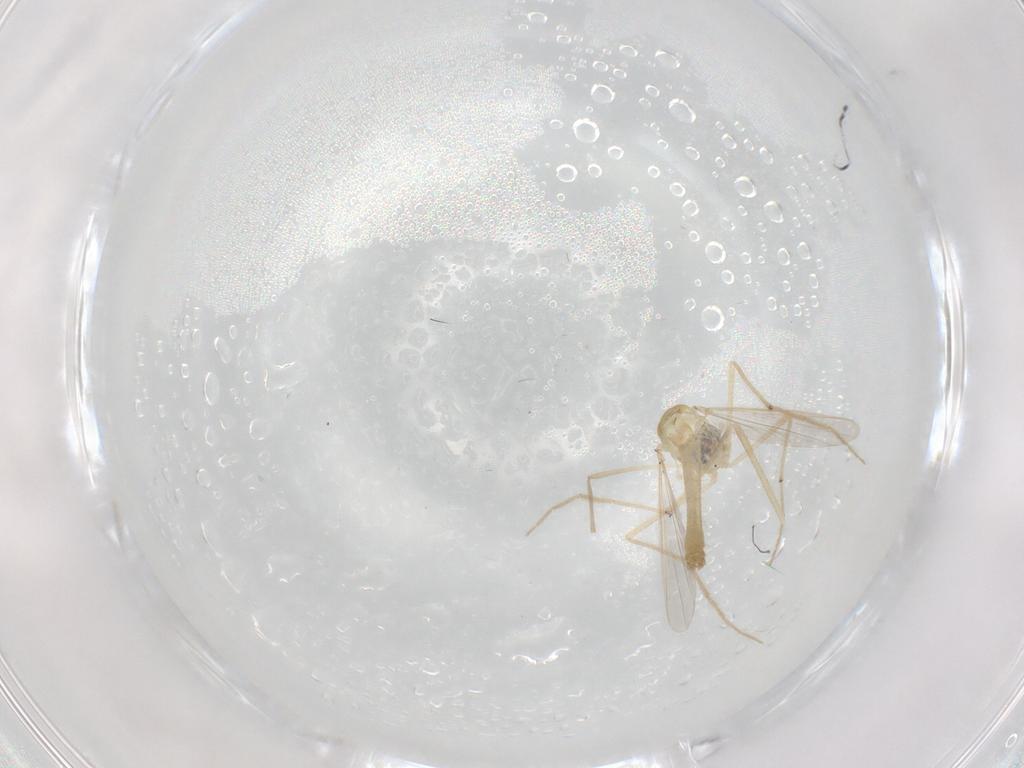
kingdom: Animalia
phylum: Arthropoda
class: Insecta
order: Diptera
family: Chironomidae
